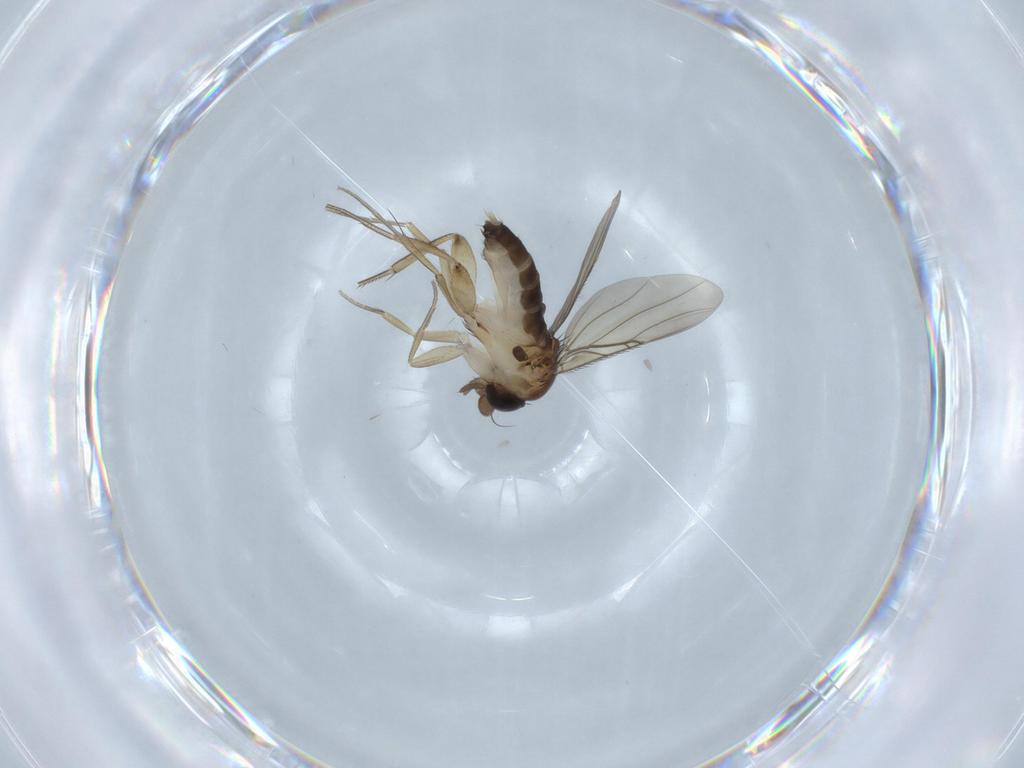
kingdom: Animalia
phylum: Arthropoda
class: Insecta
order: Diptera
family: Phoridae
